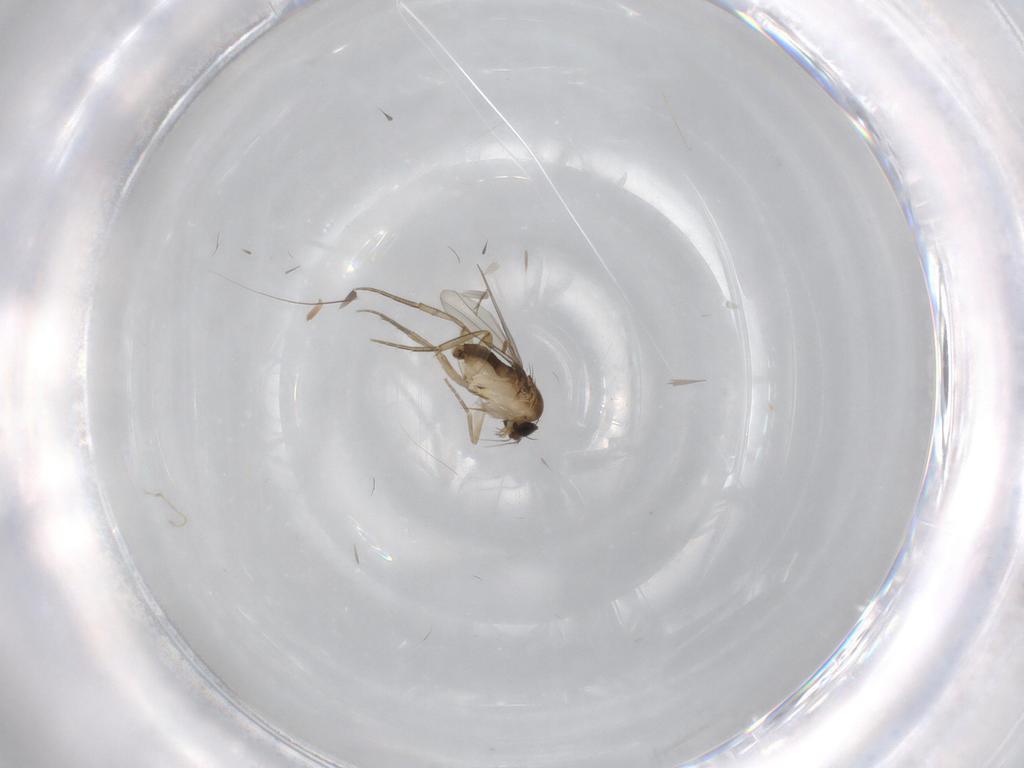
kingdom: Animalia
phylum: Arthropoda
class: Insecta
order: Diptera
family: Phoridae
